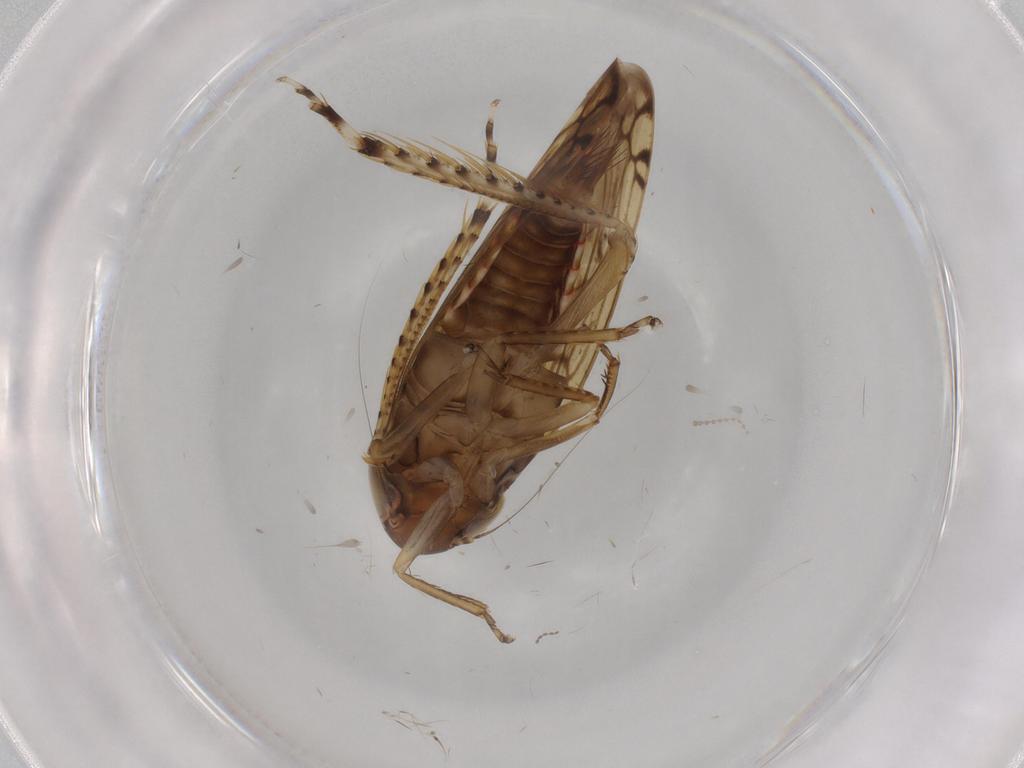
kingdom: Animalia
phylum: Arthropoda
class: Insecta
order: Hemiptera
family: Cicadellidae
